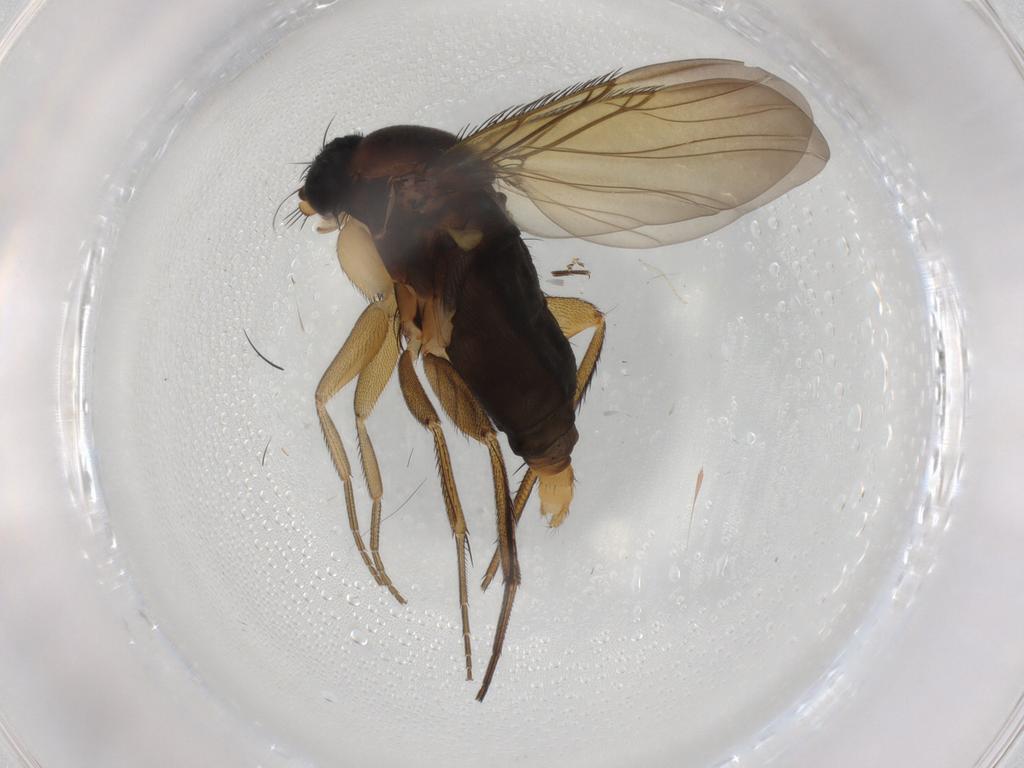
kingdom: Animalia
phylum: Arthropoda
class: Insecta
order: Diptera
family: Phoridae
